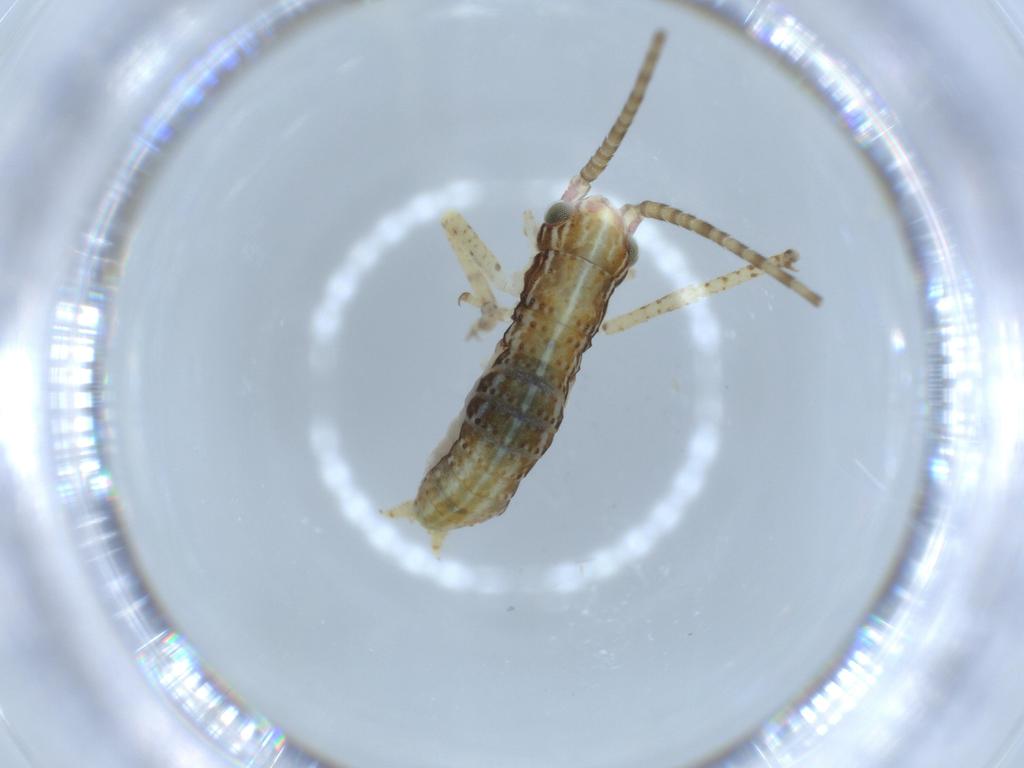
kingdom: Animalia
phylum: Arthropoda
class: Insecta
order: Orthoptera
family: Gryllidae
